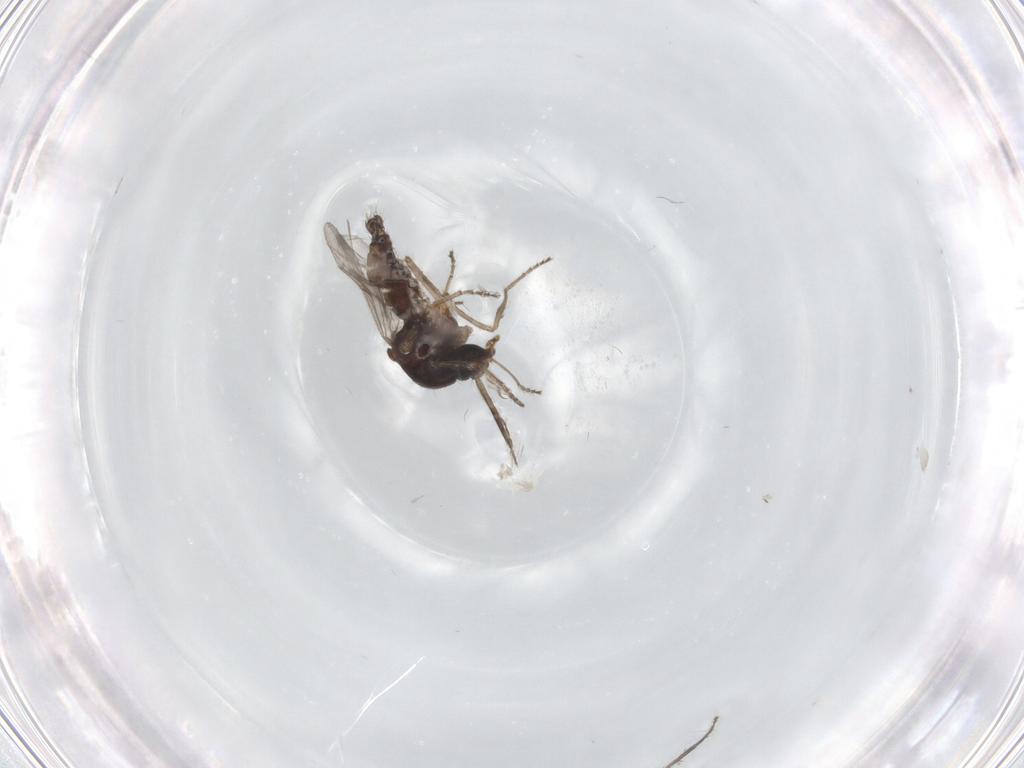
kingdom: Animalia
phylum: Arthropoda
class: Insecta
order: Diptera
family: Ceratopogonidae
